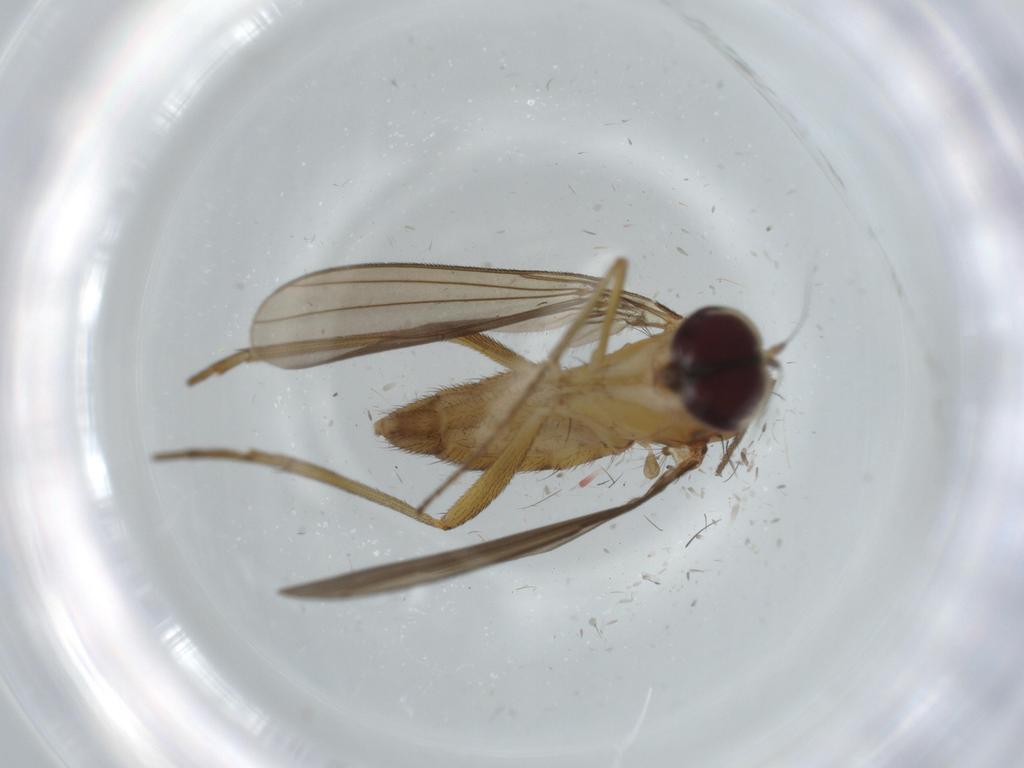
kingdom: Animalia
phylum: Arthropoda
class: Insecta
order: Diptera
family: Dolichopodidae
